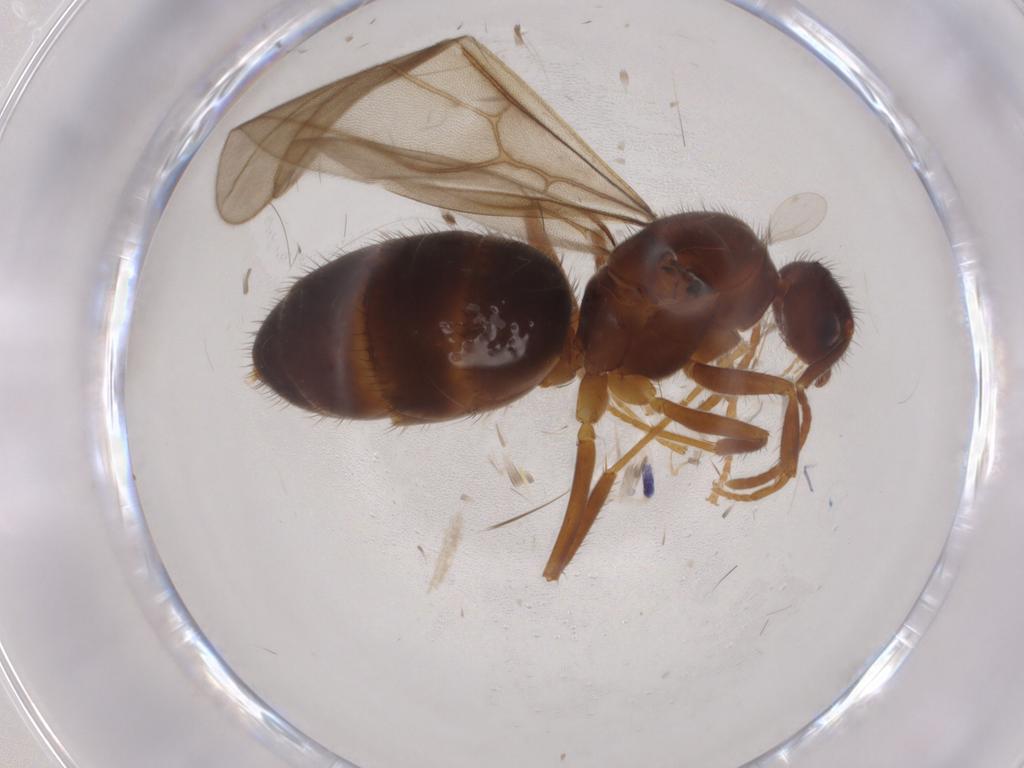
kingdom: Animalia
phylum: Arthropoda
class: Insecta
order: Hymenoptera
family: Formicidae
